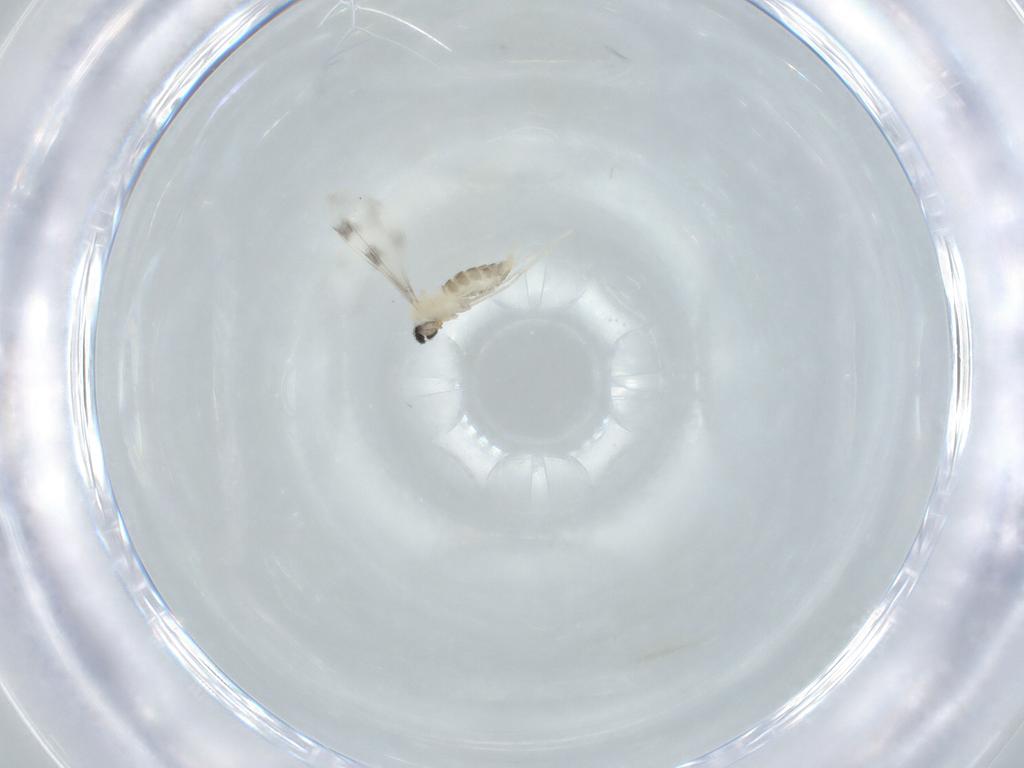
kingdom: Animalia
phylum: Arthropoda
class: Insecta
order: Diptera
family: Cecidomyiidae
